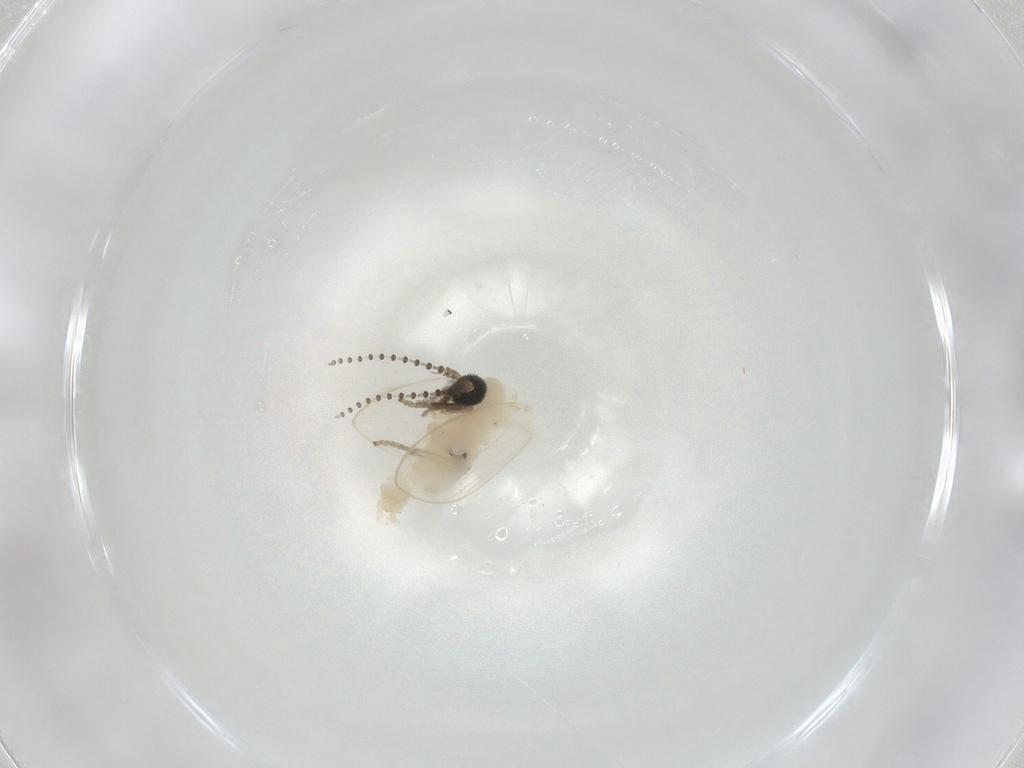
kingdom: Animalia
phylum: Arthropoda
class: Insecta
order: Diptera
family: Psychodidae
